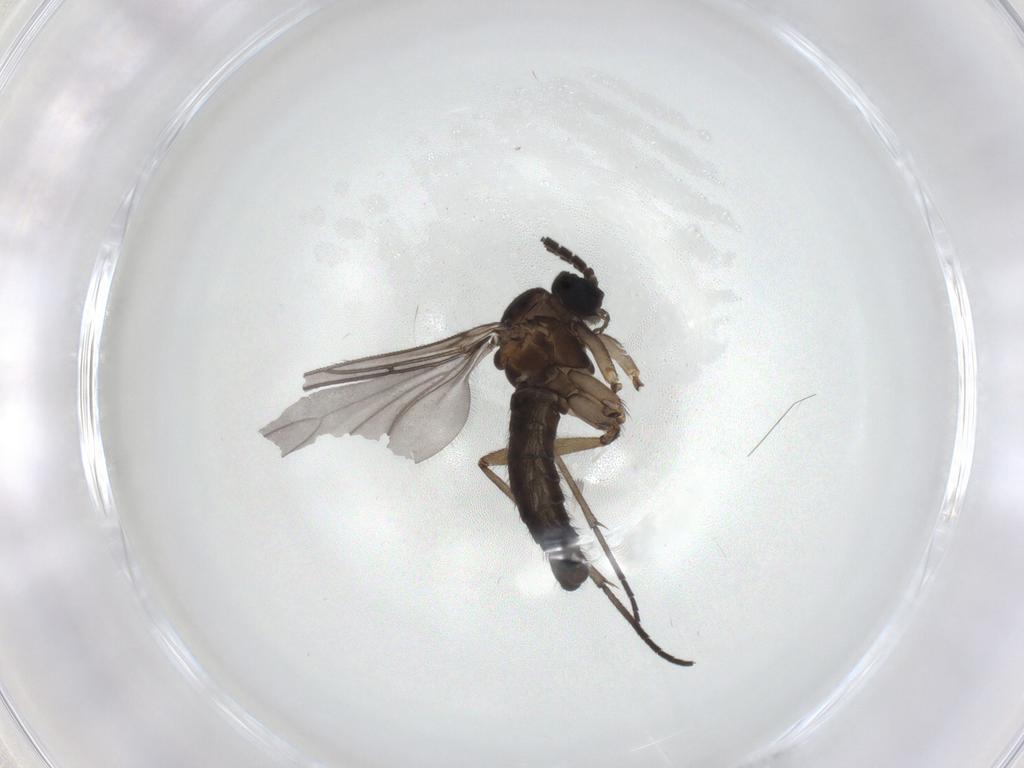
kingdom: Animalia
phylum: Arthropoda
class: Insecta
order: Diptera
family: Sciaridae
